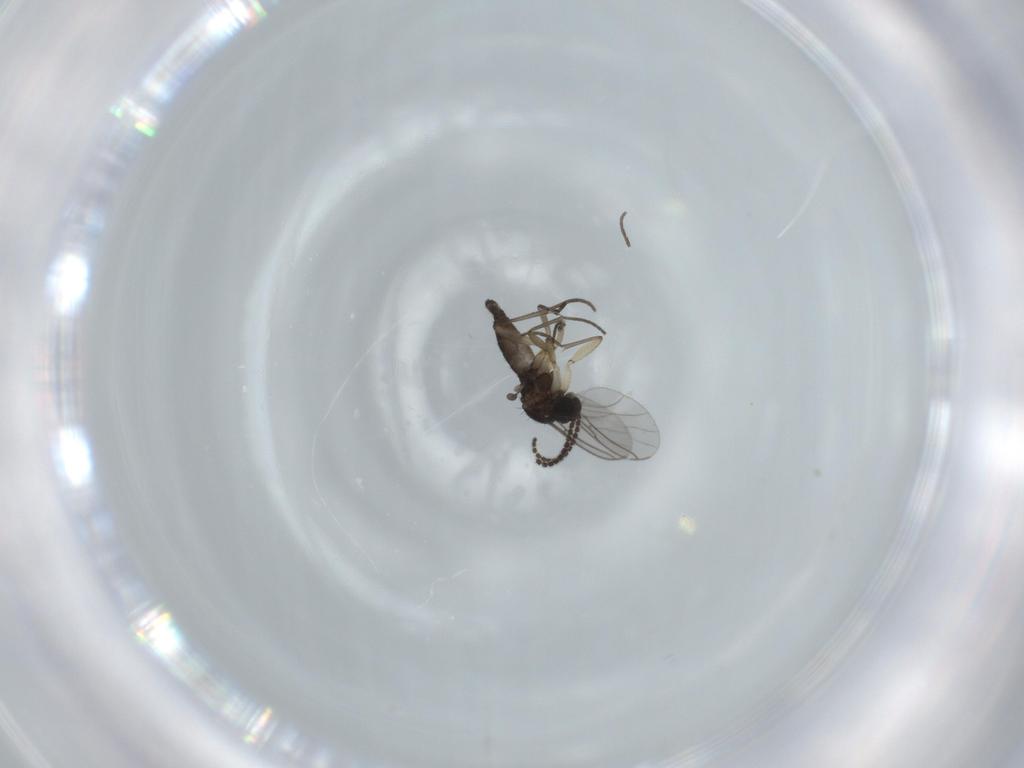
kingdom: Animalia
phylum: Arthropoda
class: Insecta
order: Diptera
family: Sciaridae
